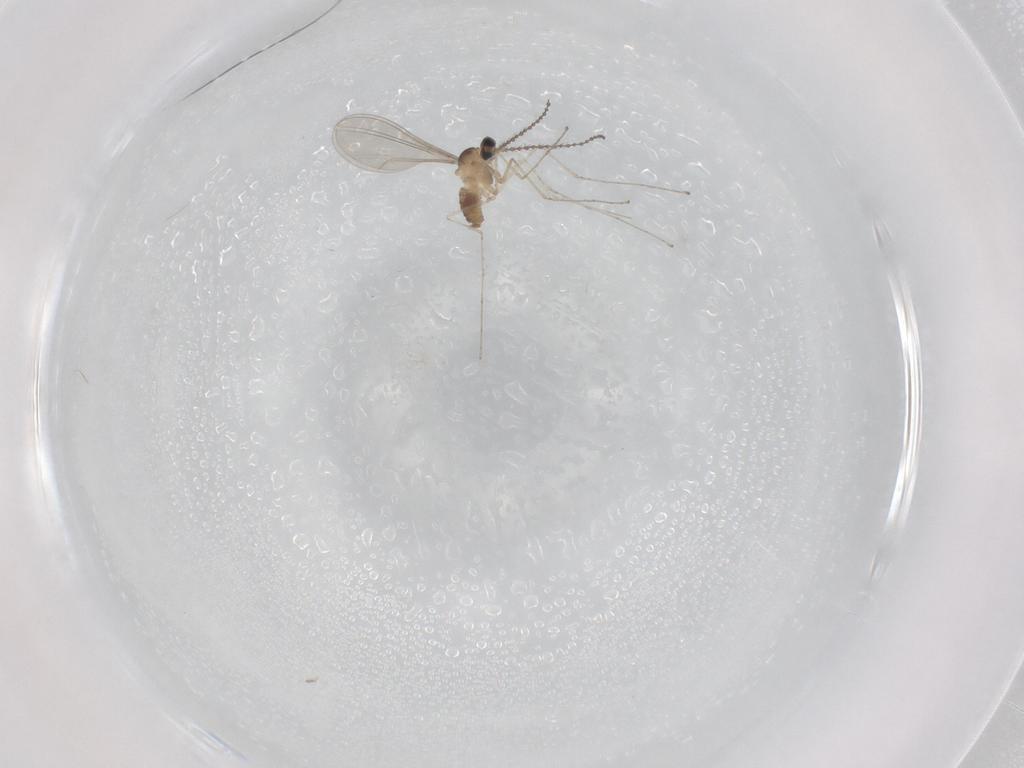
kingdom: Animalia
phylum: Arthropoda
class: Insecta
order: Diptera
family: Cecidomyiidae
